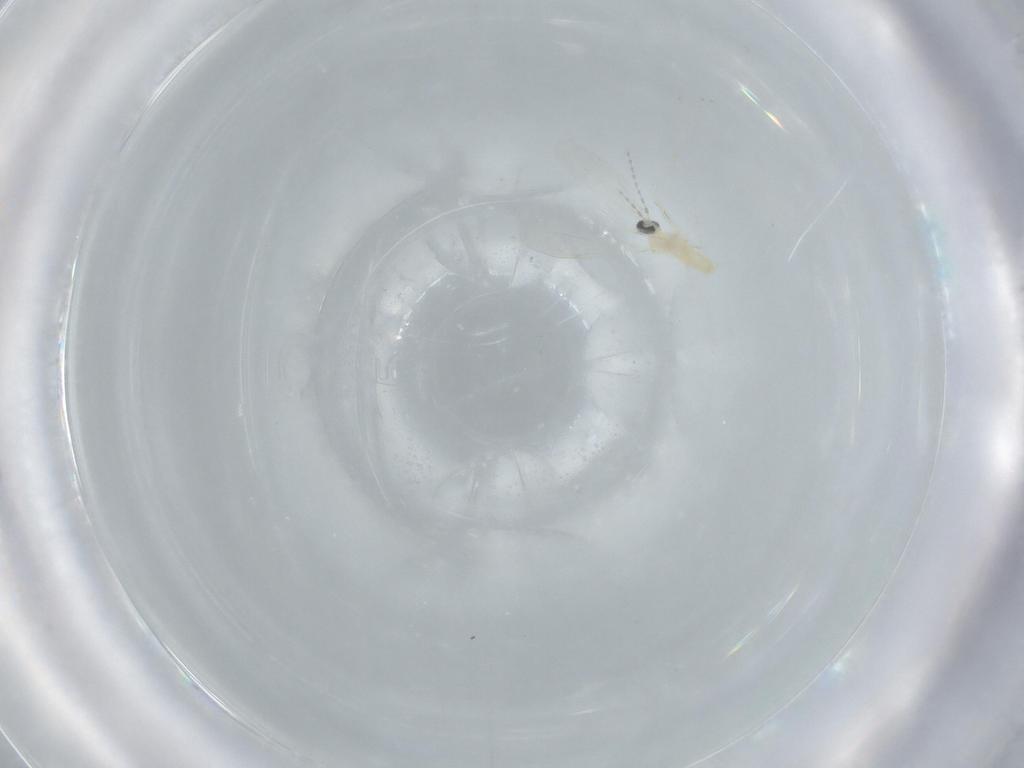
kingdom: Animalia
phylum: Arthropoda
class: Insecta
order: Diptera
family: Cecidomyiidae
